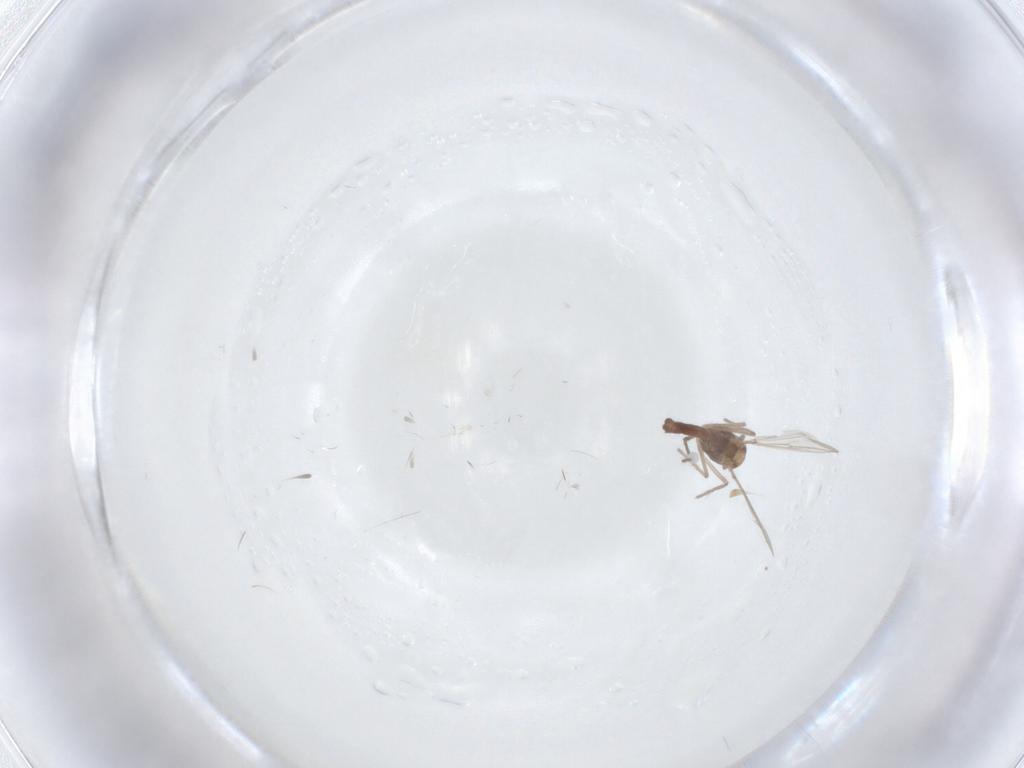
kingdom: Animalia
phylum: Arthropoda
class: Insecta
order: Diptera
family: Chironomidae
